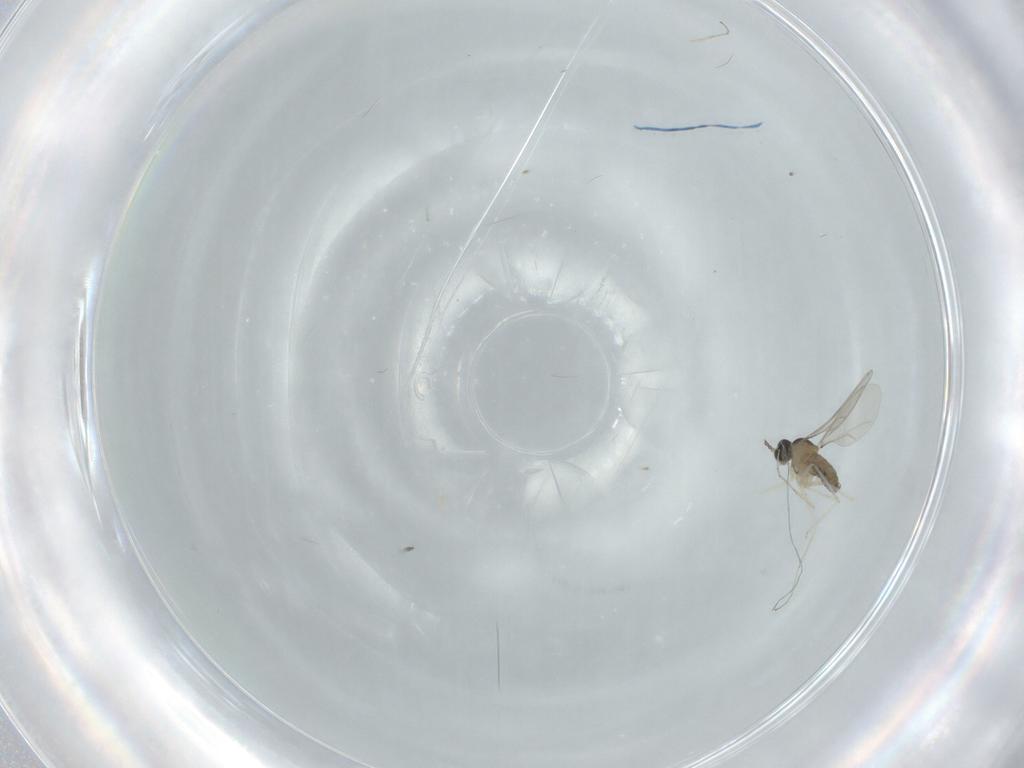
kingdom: Animalia
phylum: Arthropoda
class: Insecta
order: Diptera
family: Cecidomyiidae
